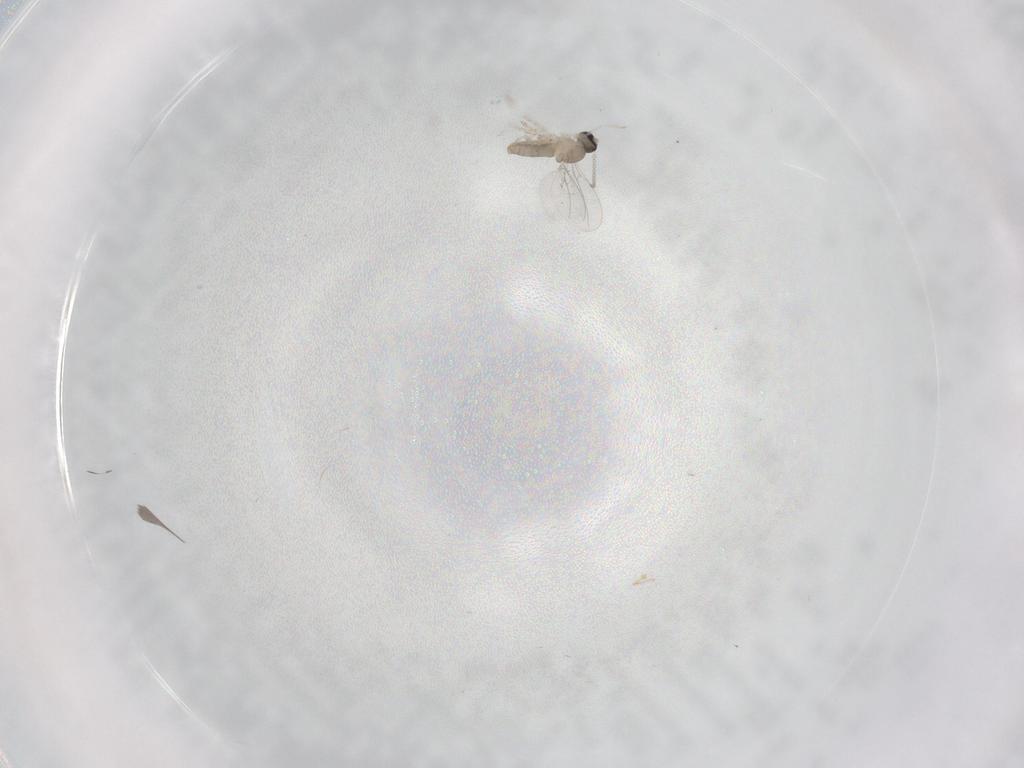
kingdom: Animalia
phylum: Arthropoda
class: Insecta
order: Diptera
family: Cecidomyiidae
